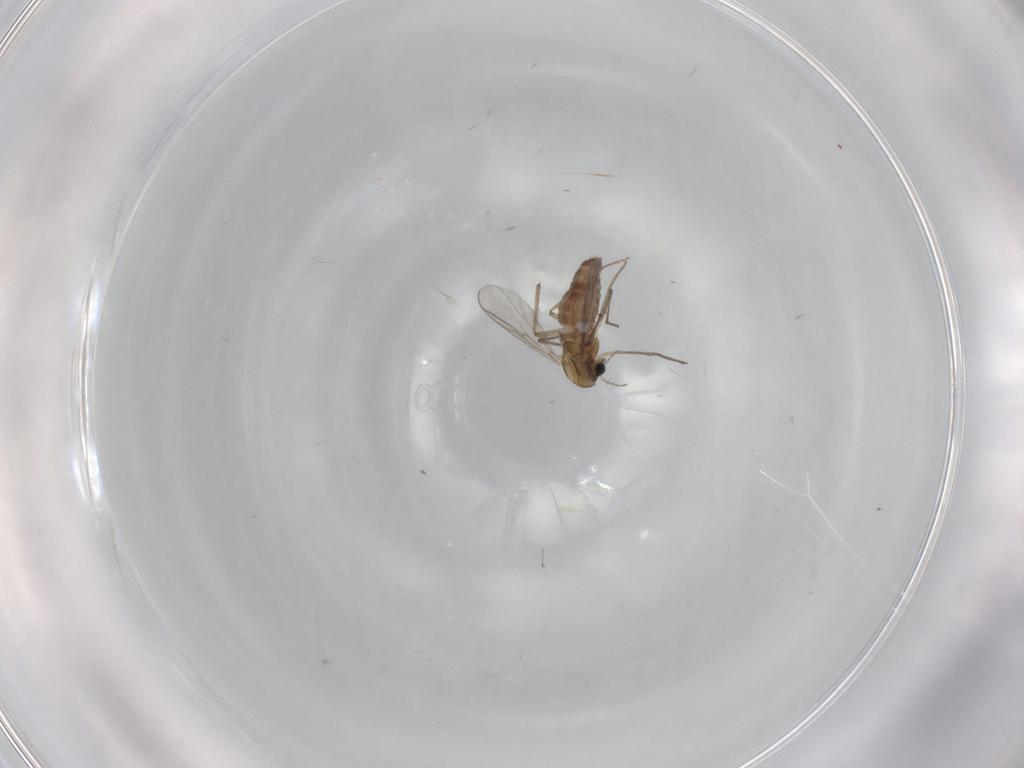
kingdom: Animalia
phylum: Arthropoda
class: Insecta
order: Diptera
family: Chironomidae
